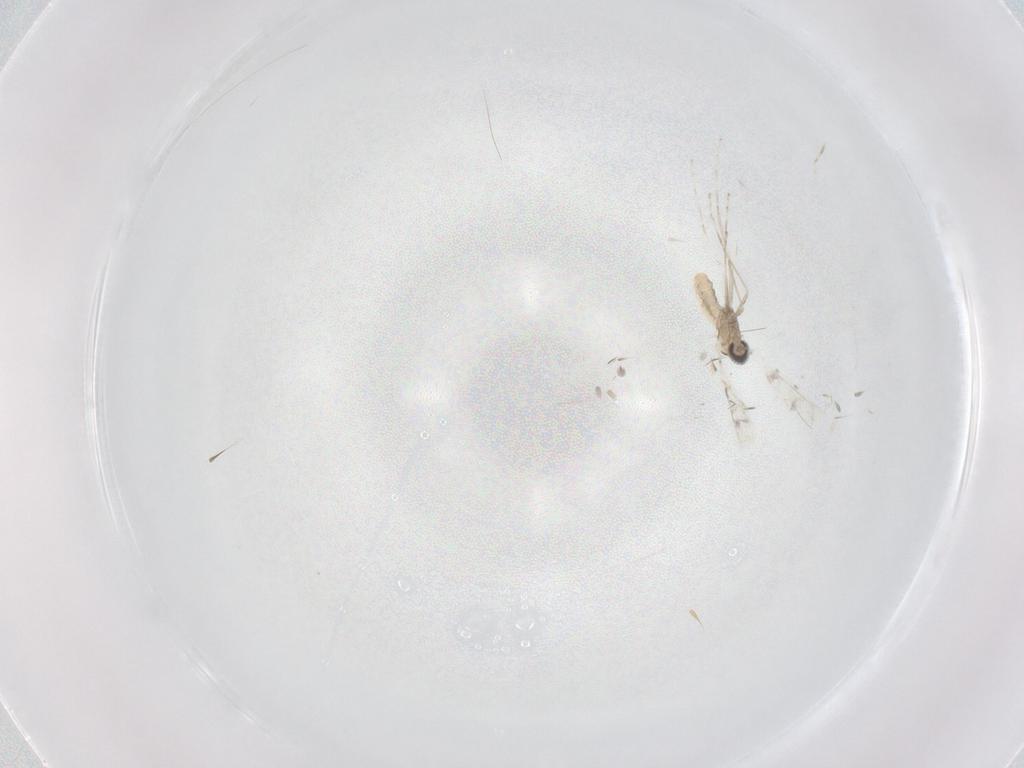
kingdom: Animalia
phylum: Arthropoda
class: Insecta
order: Diptera
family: Cecidomyiidae
